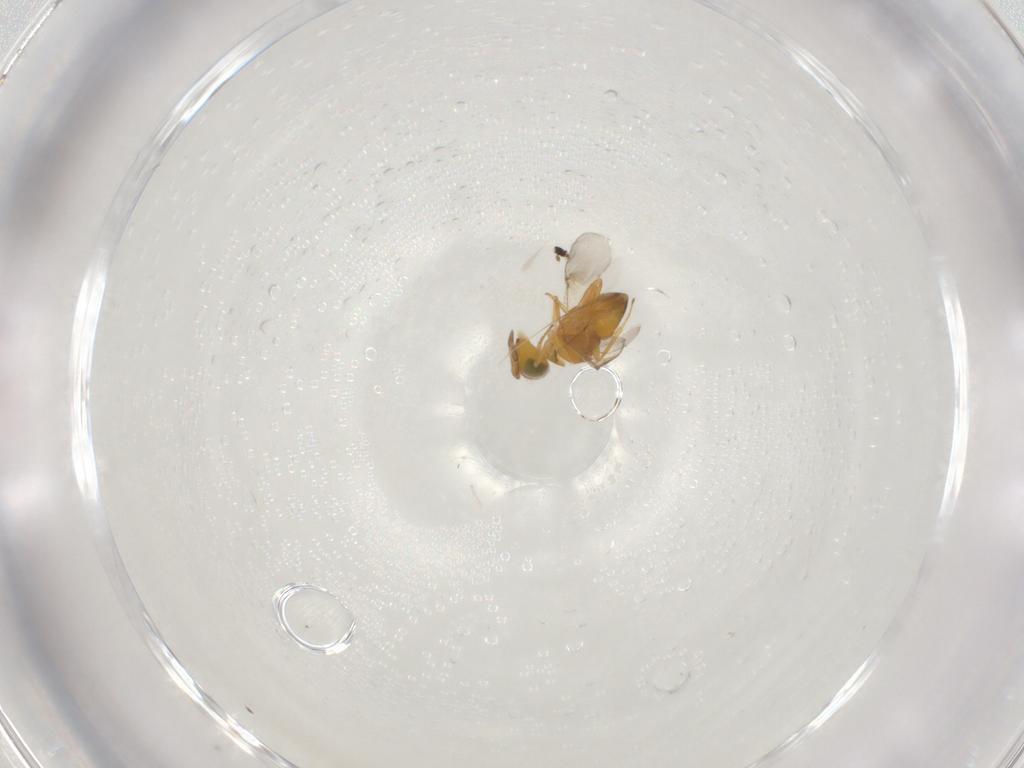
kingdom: Animalia
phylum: Arthropoda
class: Insecta
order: Hymenoptera
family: Encyrtidae
